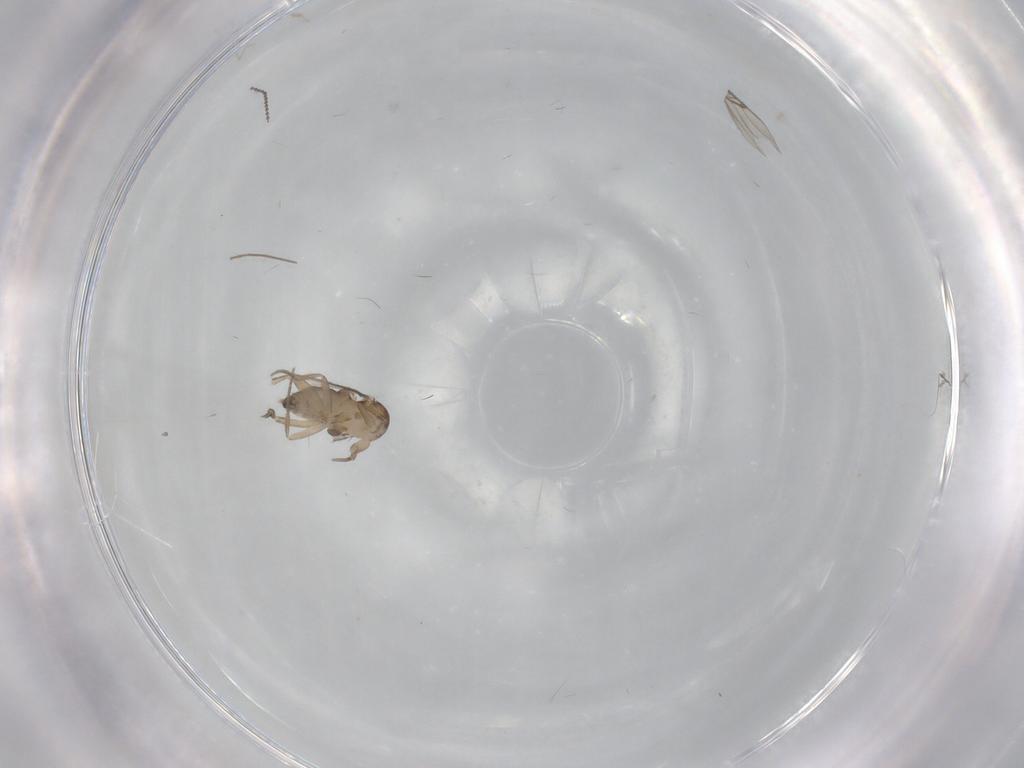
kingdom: Animalia
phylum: Arthropoda
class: Insecta
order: Diptera
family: Phoridae
